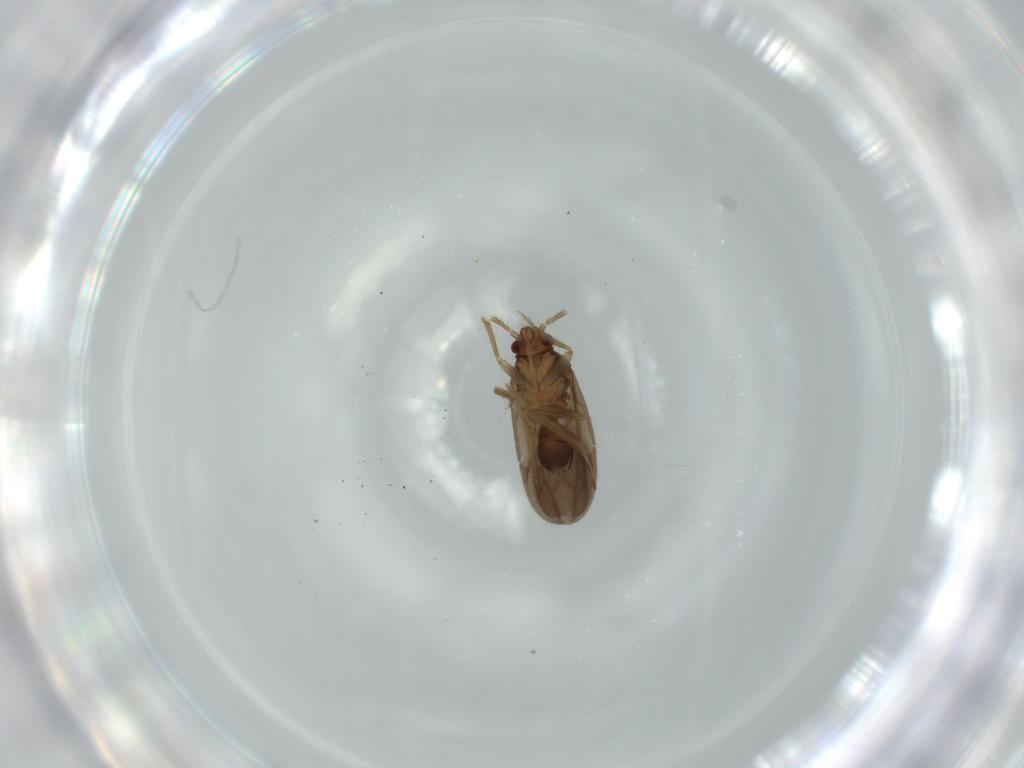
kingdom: Animalia
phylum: Arthropoda
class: Insecta
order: Hemiptera
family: Ceratocombidae
